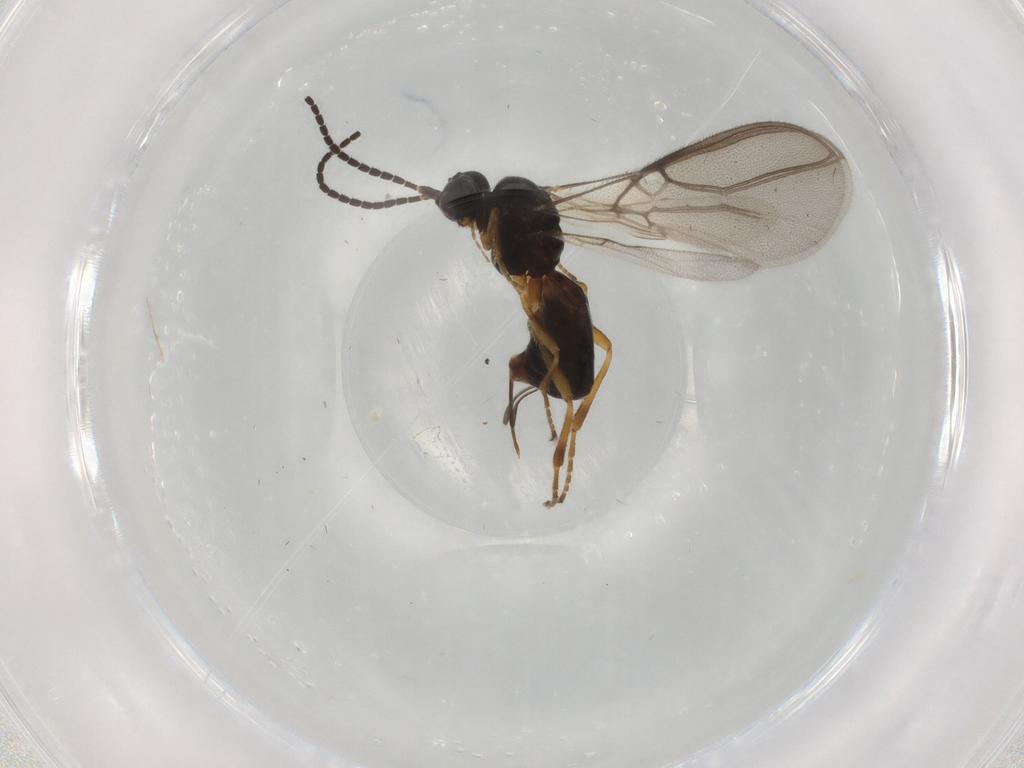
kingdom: Animalia
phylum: Arthropoda
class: Insecta
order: Hymenoptera
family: Braconidae
